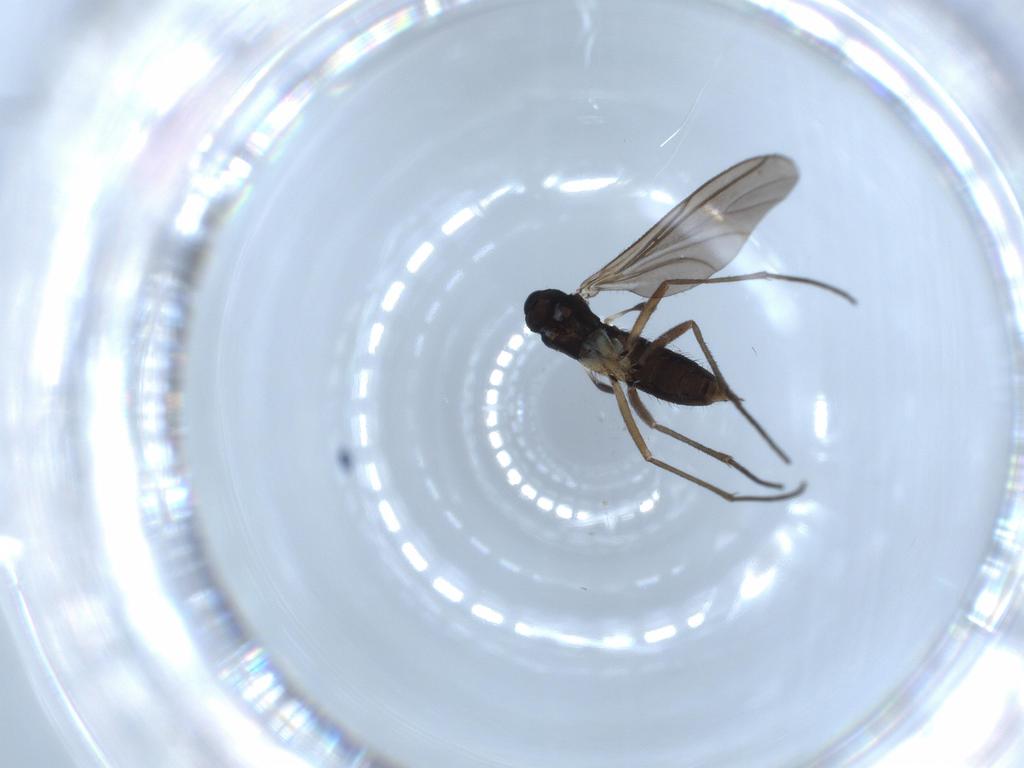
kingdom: Animalia
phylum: Arthropoda
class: Insecta
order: Diptera
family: Sciaridae
